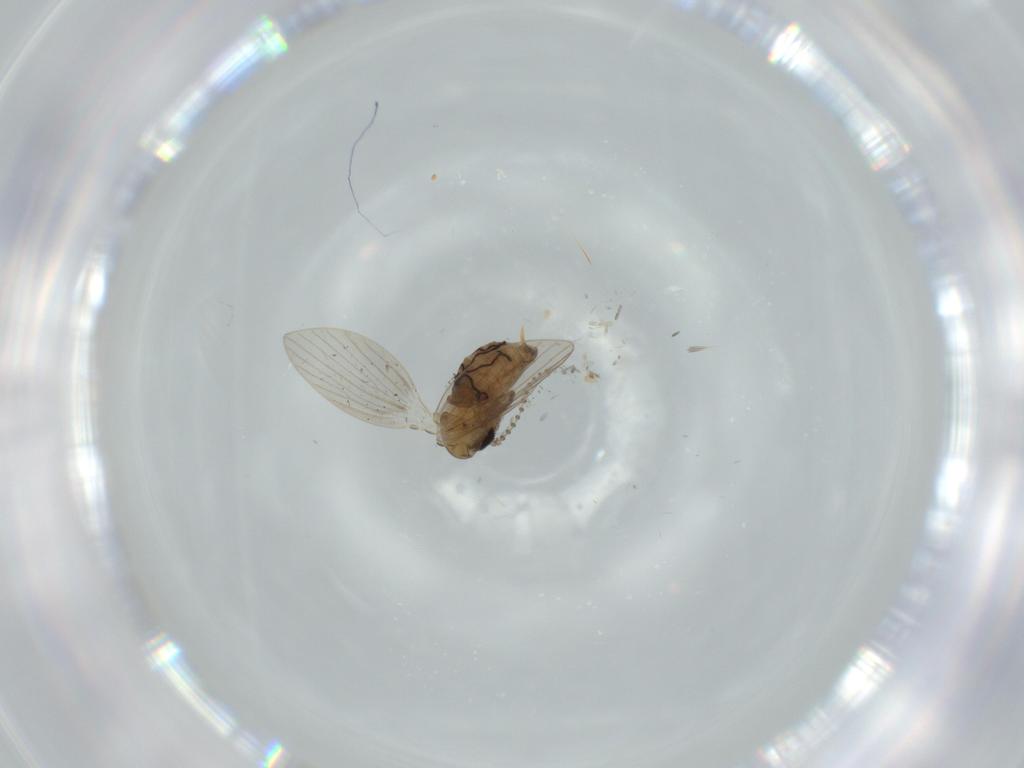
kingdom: Animalia
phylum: Arthropoda
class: Insecta
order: Diptera
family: Psychodidae
